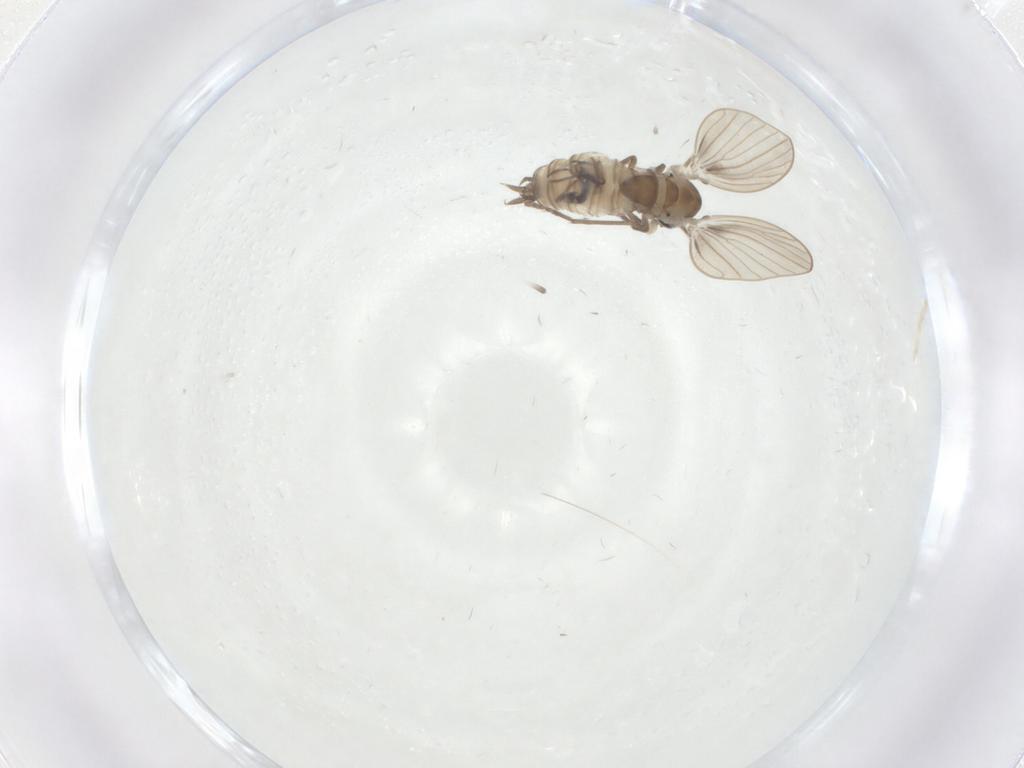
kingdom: Animalia
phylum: Arthropoda
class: Insecta
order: Diptera
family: Psychodidae
